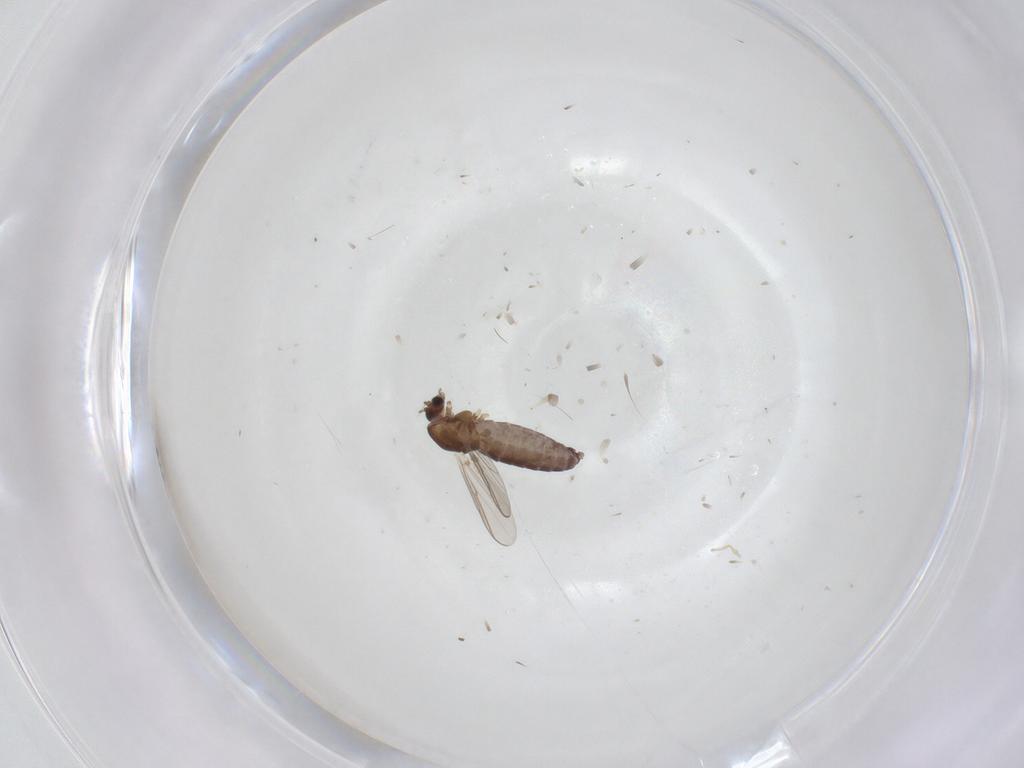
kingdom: Animalia
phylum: Arthropoda
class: Insecta
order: Diptera
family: Chironomidae
